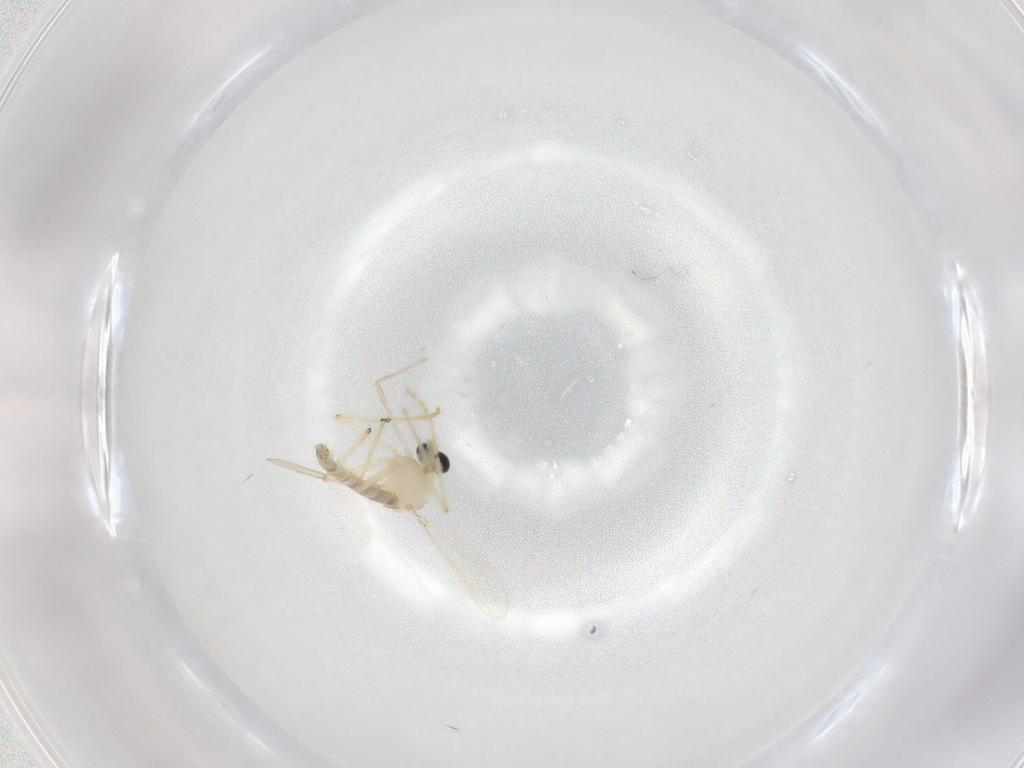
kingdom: Animalia
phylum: Arthropoda
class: Insecta
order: Diptera
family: Chironomidae
